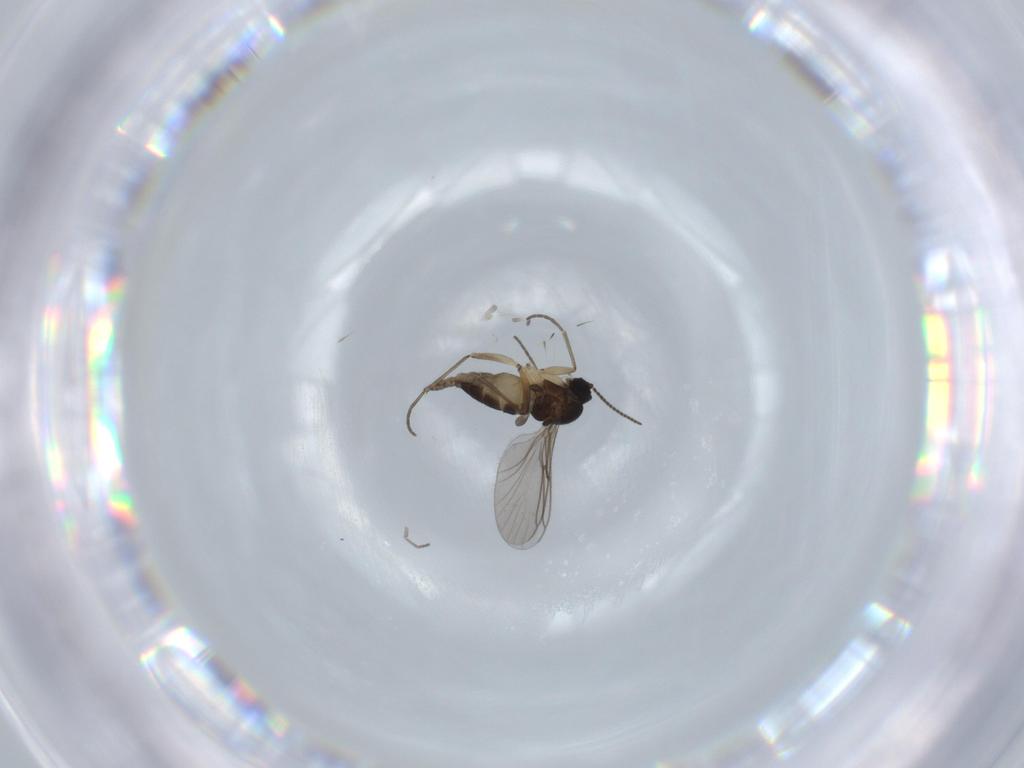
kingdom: Animalia
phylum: Arthropoda
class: Insecta
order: Diptera
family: Sciaridae
